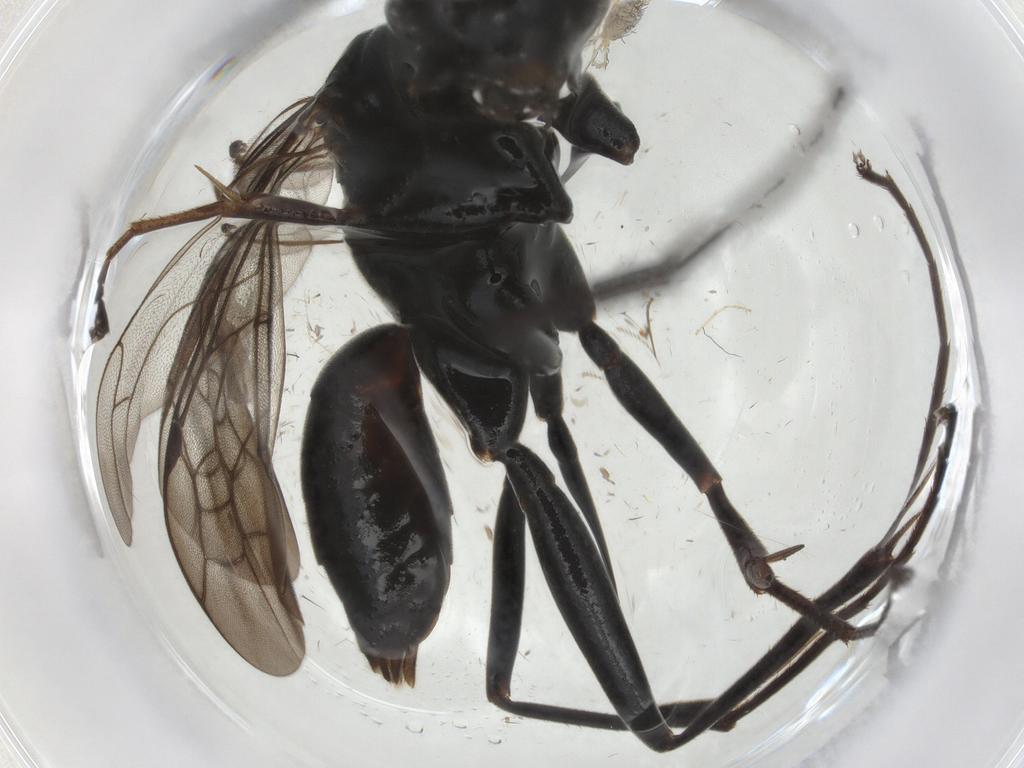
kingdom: Animalia
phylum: Arthropoda
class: Insecta
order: Hymenoptera
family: Pompilidae
